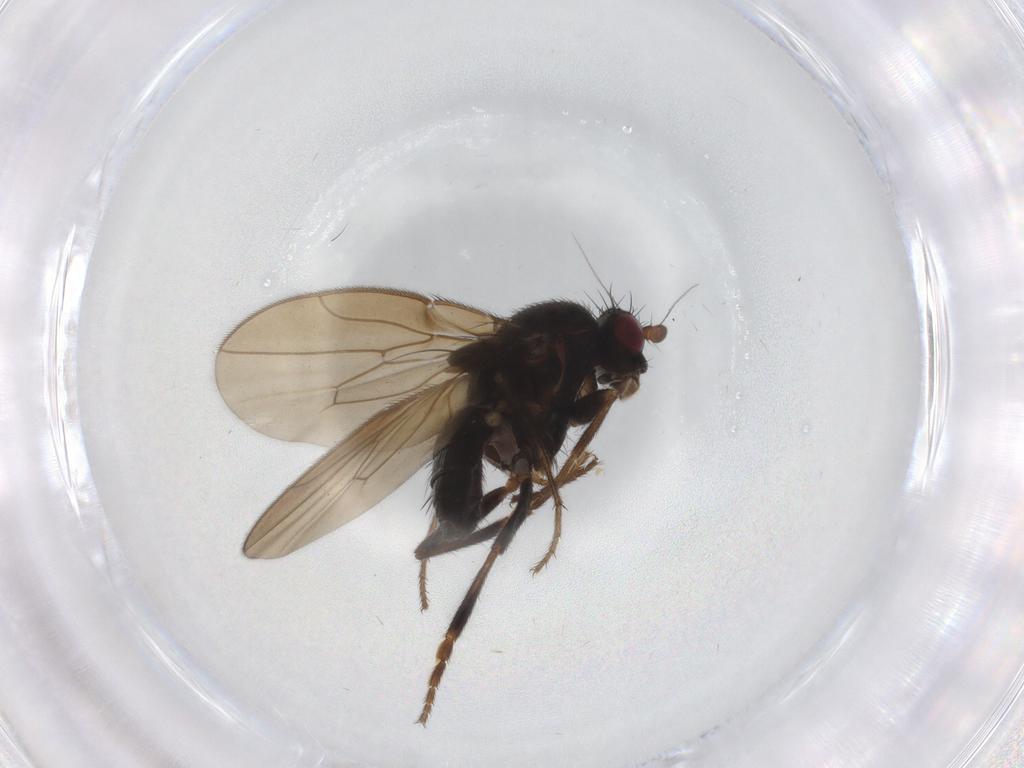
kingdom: Animalia
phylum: Arthropoda
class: Insecta
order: Diptera
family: Sphaeroceridae
